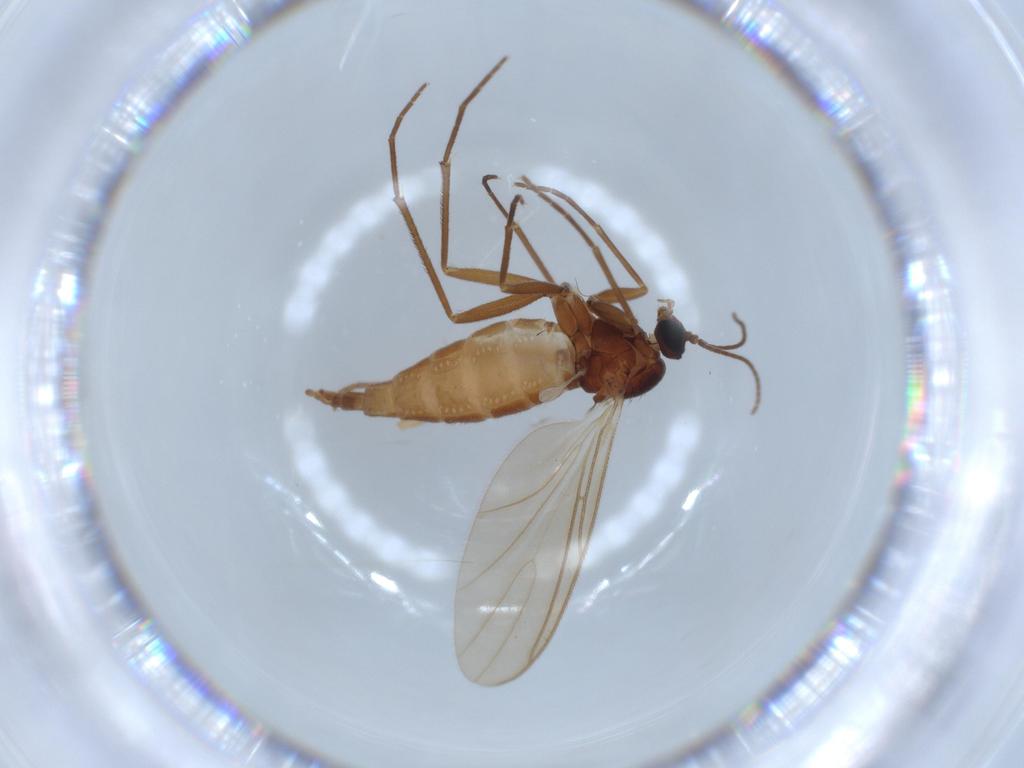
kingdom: Animalia
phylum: Arthropoda
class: Insecta
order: Diptera
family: Sciaridae
